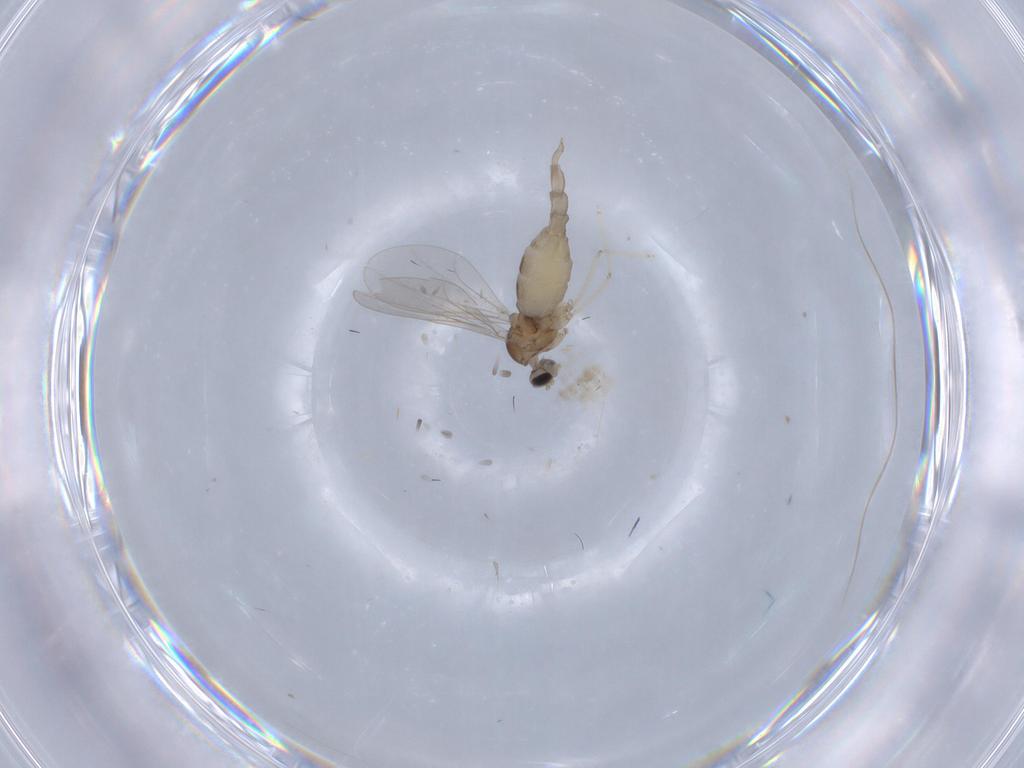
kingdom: Animalia
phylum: Arthropoda
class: Insecta
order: Diptera
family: Cecidomyiidae
